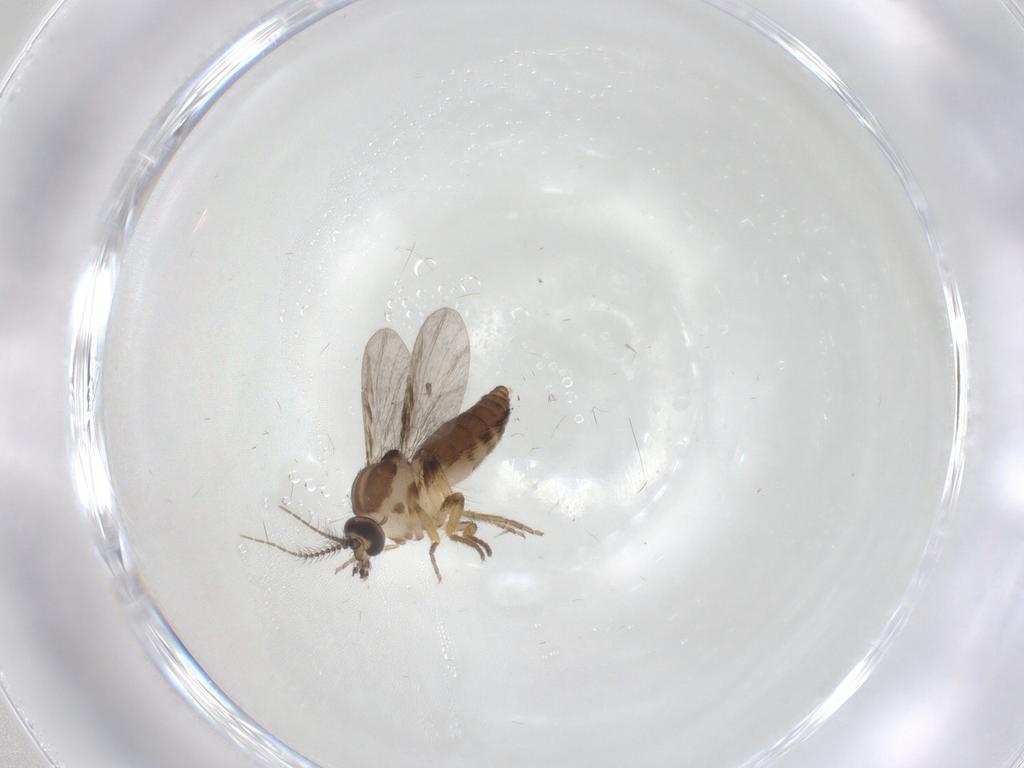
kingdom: Animalia
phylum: Arthropoda
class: Insecta
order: Diptera
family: Ceratopogonidae
